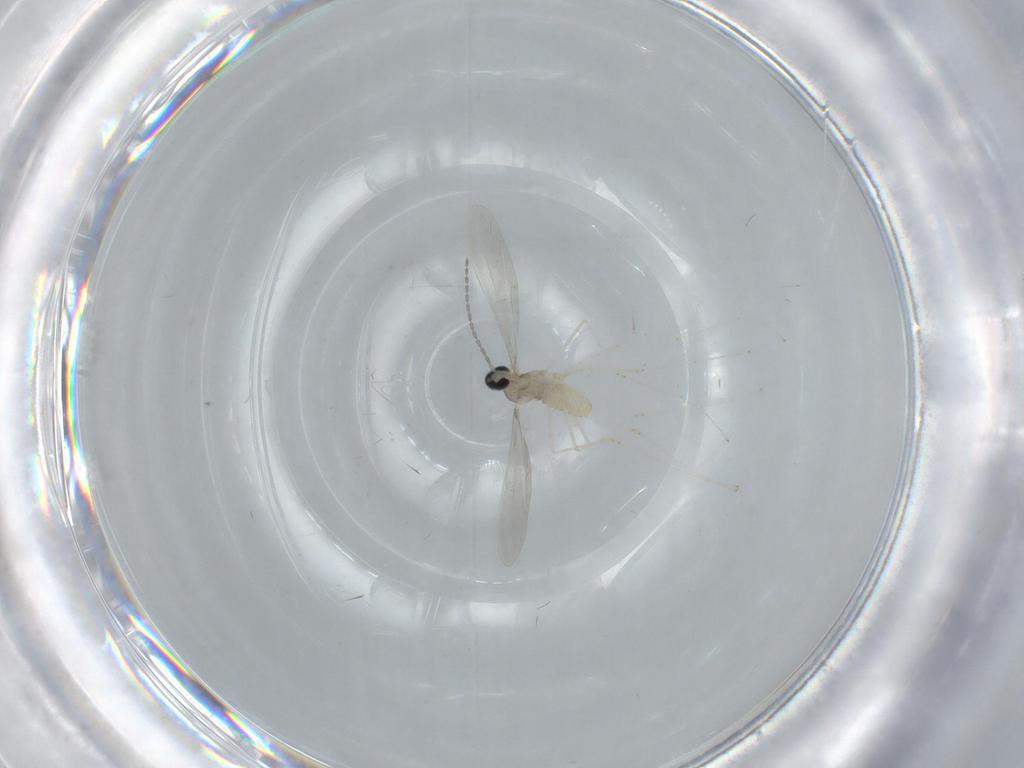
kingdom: Animalia
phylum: Arthropoda
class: Insecta
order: Diptera
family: Cecidomyiidae
